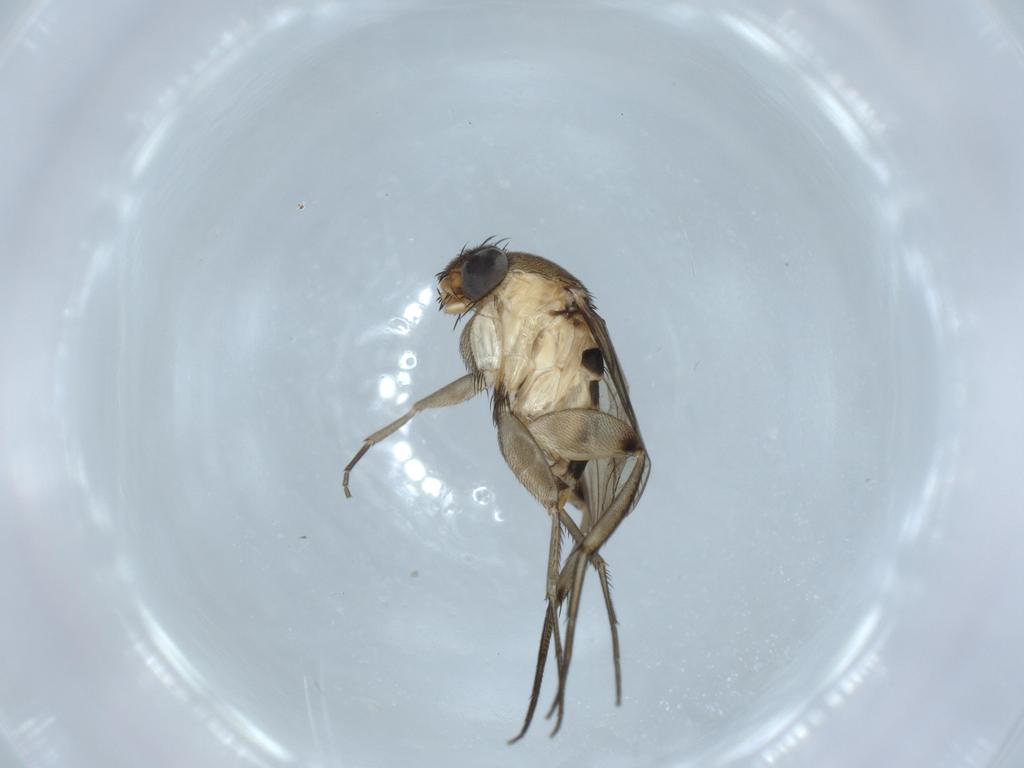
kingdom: Animalia
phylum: Arthropoda
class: Insecta
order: Diptera
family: Phoridae
